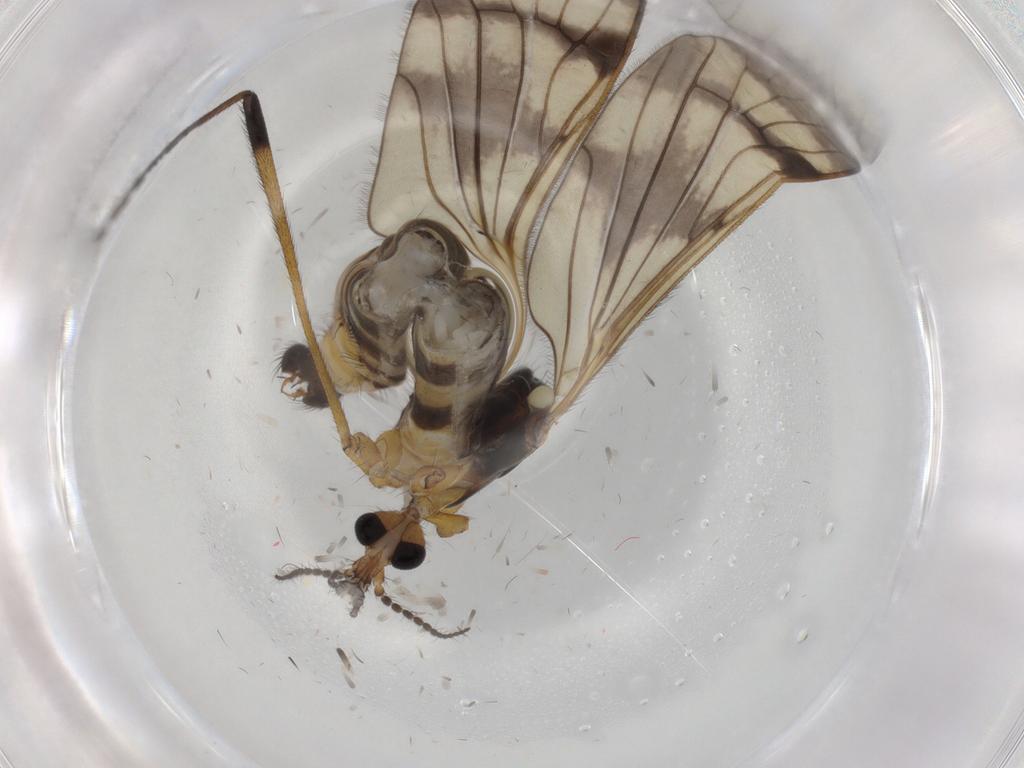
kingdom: Animalia
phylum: Arthropoda
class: Insecta
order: Diptera
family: Limoniidae
